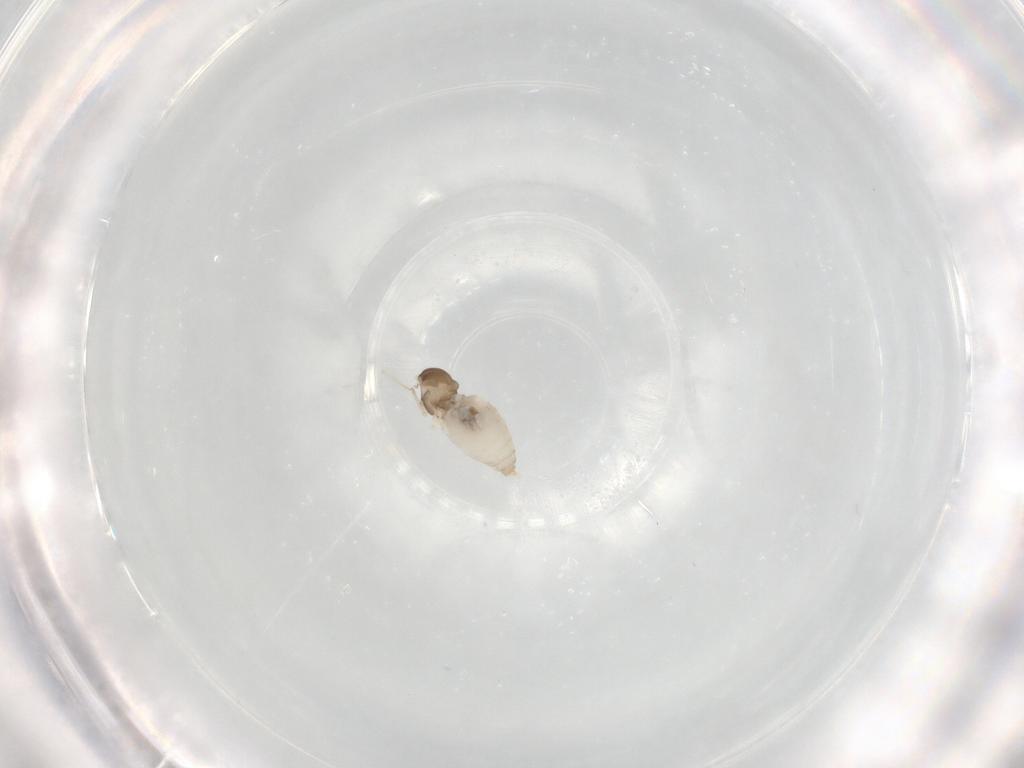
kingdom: Animalia
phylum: Arthropoda
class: Insecta
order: Diptera
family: Cecidomyiidae
